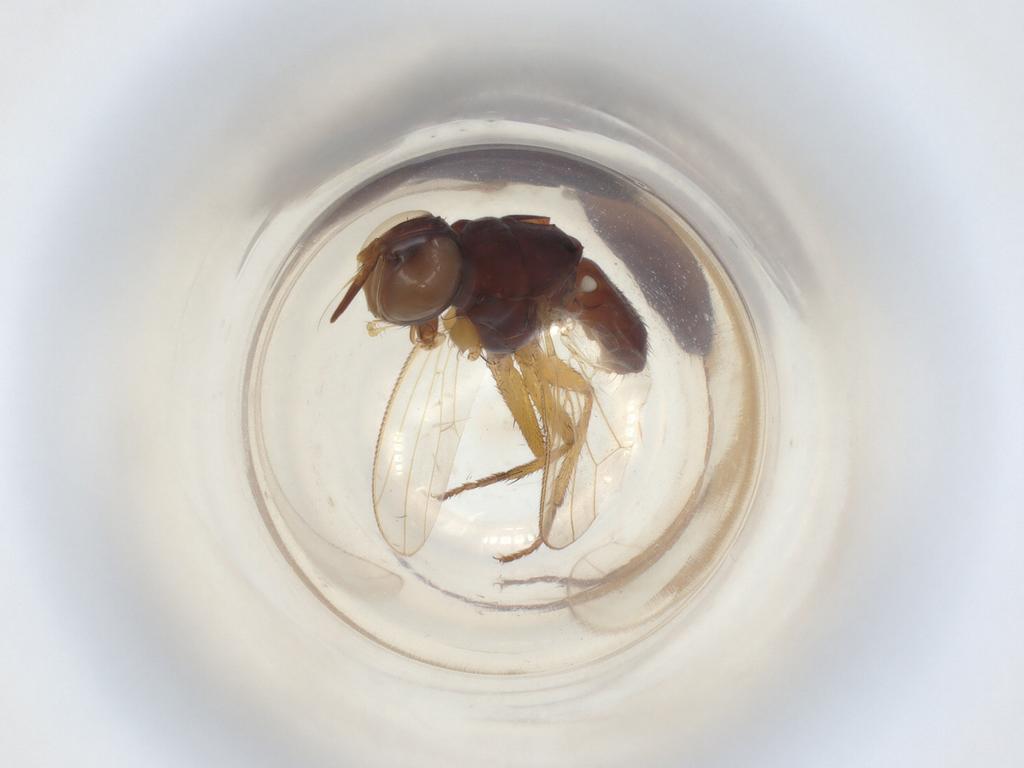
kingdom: Animalia
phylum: Arthropoda
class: Insecta
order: Diptera
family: Muscidae
